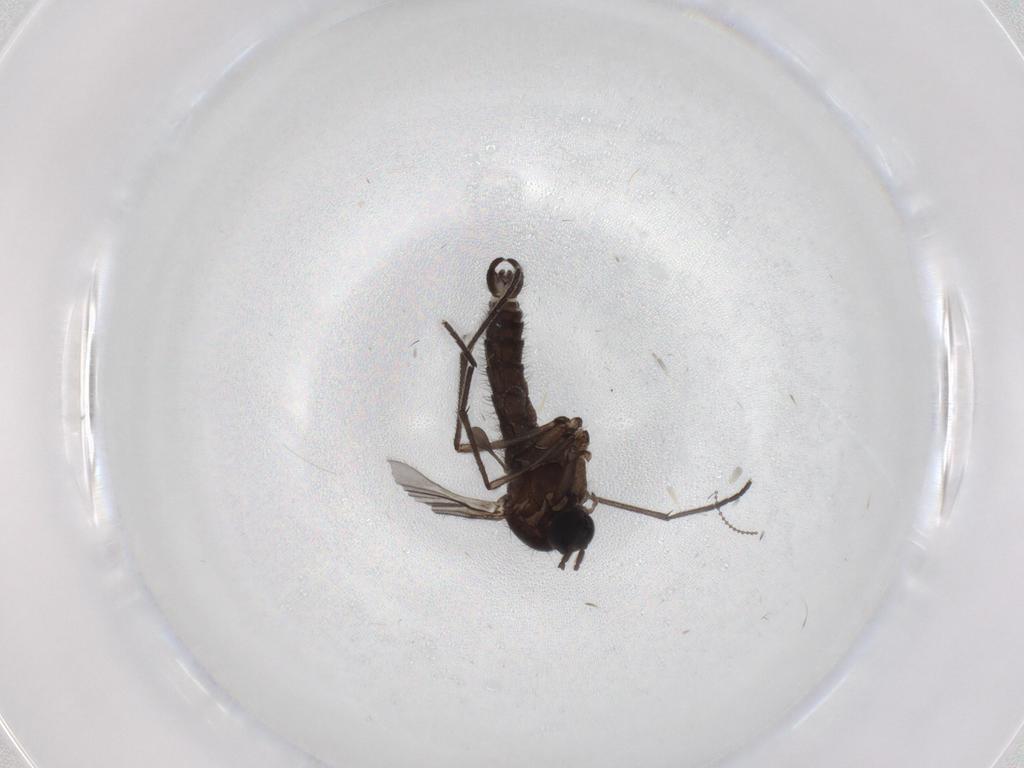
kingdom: Animalia
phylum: Arthropoda
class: Insecta
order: Diptera
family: Sciaridae
